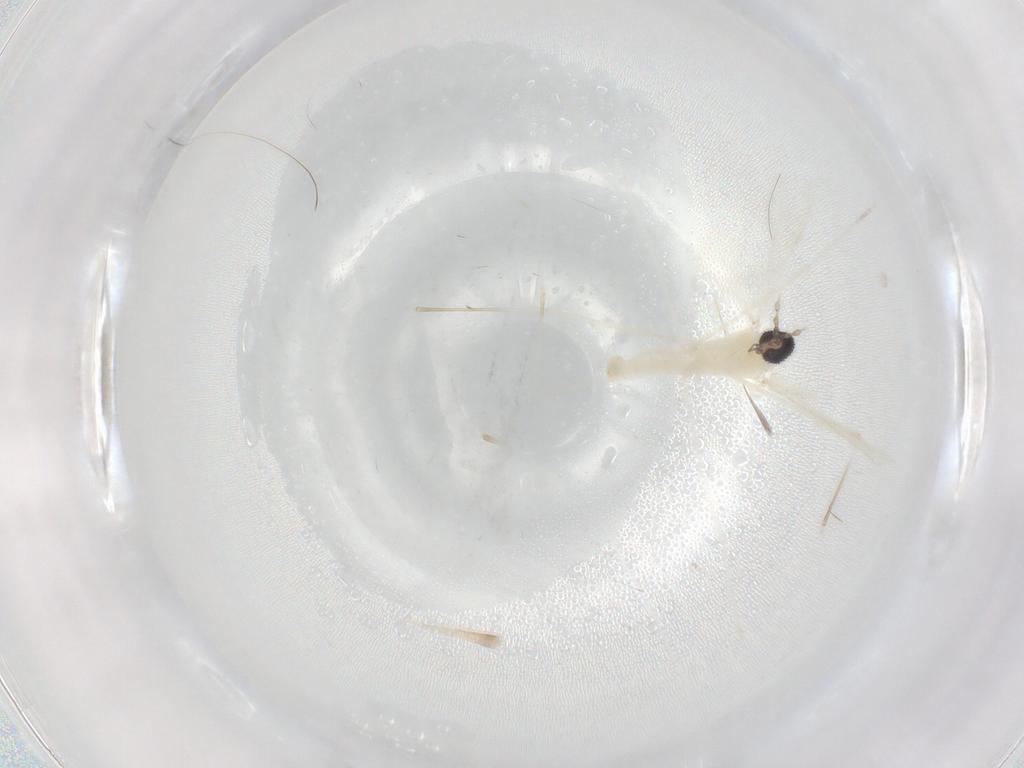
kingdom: Animalia
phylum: Arthropoda
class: Insecta
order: Diptera
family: Cecidomyiidae
